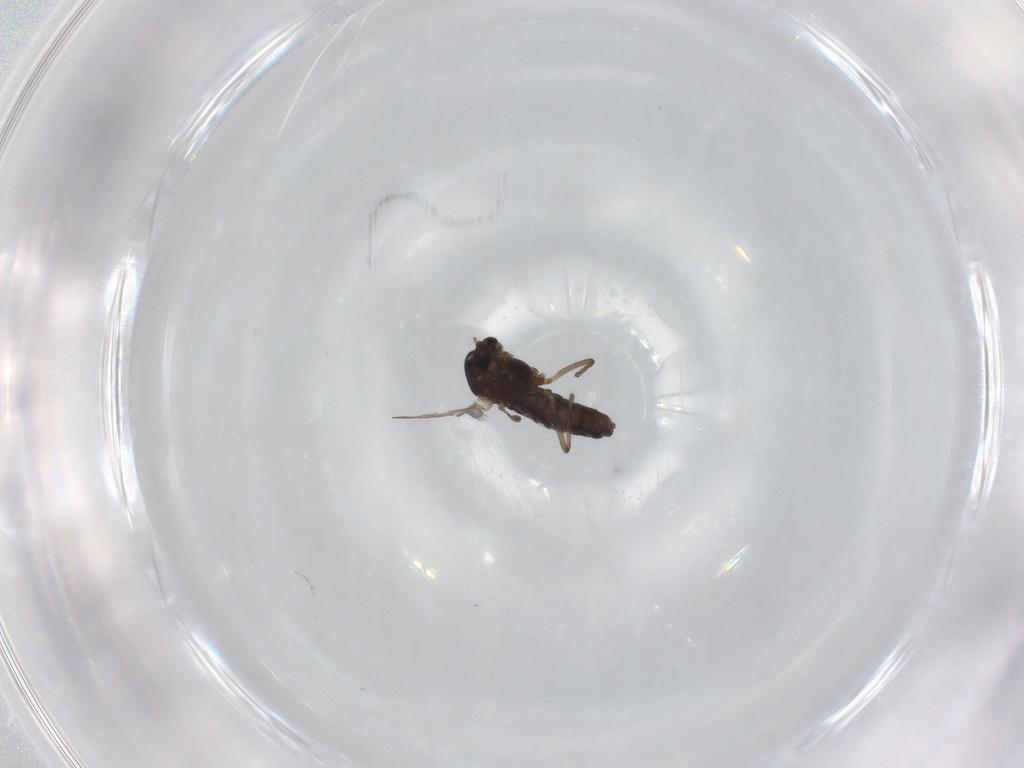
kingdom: Animalia
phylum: Arthropoda
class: Insecta
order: Diptera
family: Chironomidae
